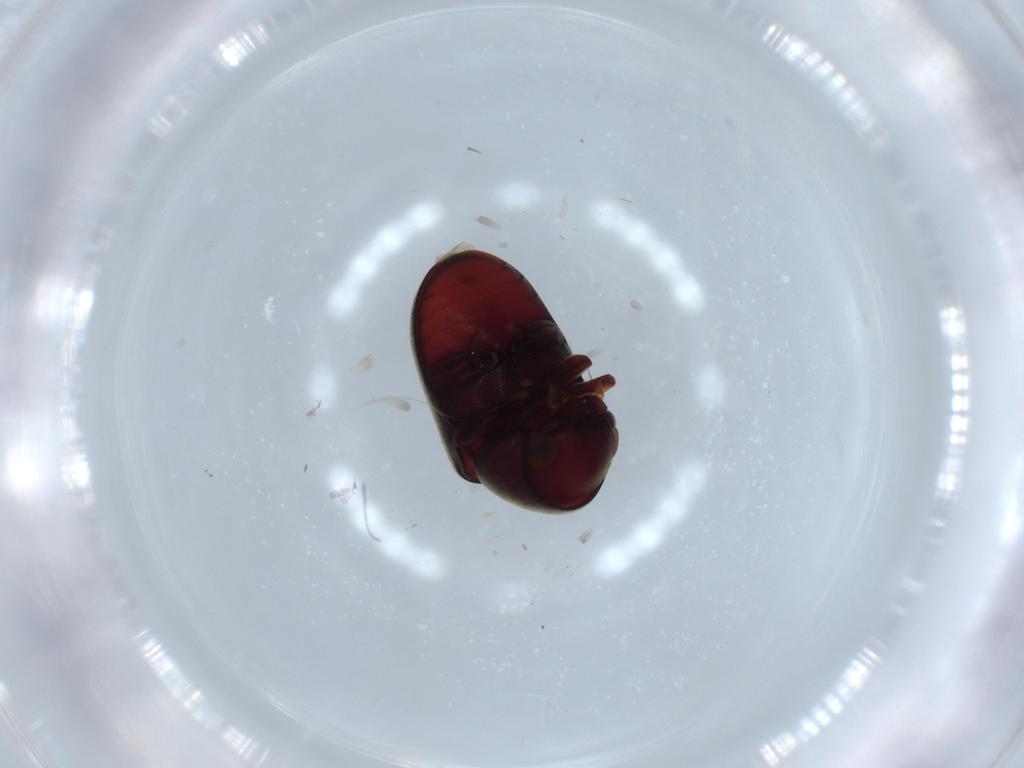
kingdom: Animalia
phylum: Arthropoda
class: Insecta
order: Coleoptera
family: Ptinidae
